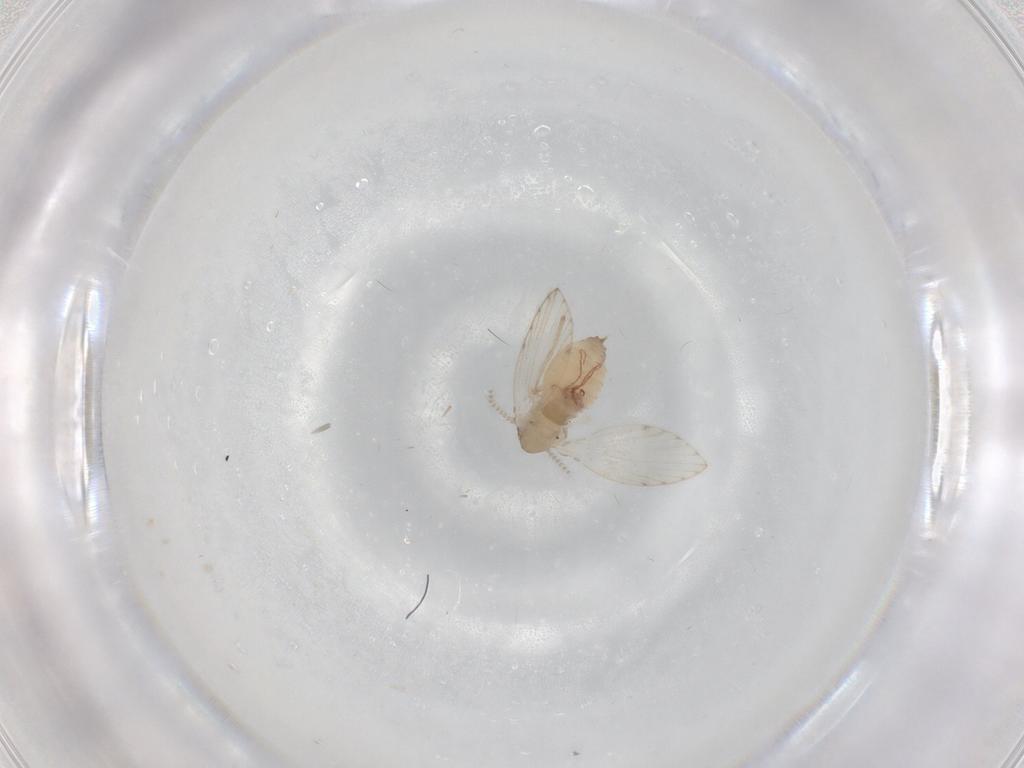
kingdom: Animalia
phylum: Arthropoda
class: Insecta
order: Diptera
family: Psychodidae
